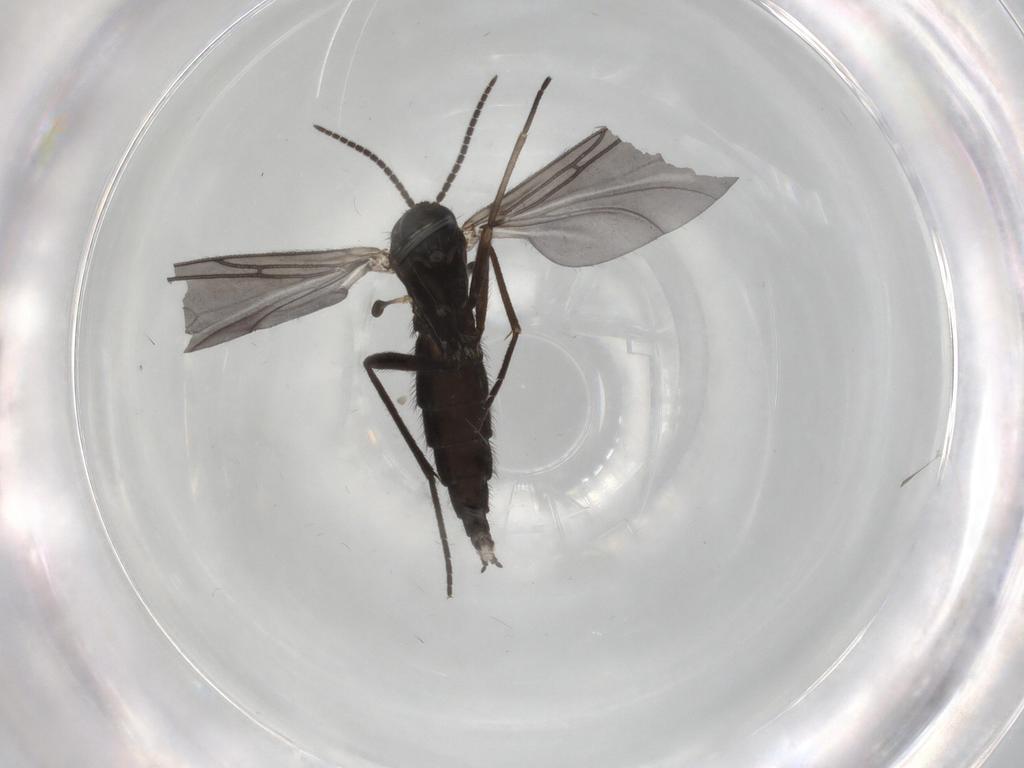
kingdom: Animalia
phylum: Arthropoda
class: Insecta
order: Diptera
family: Sciaridae
